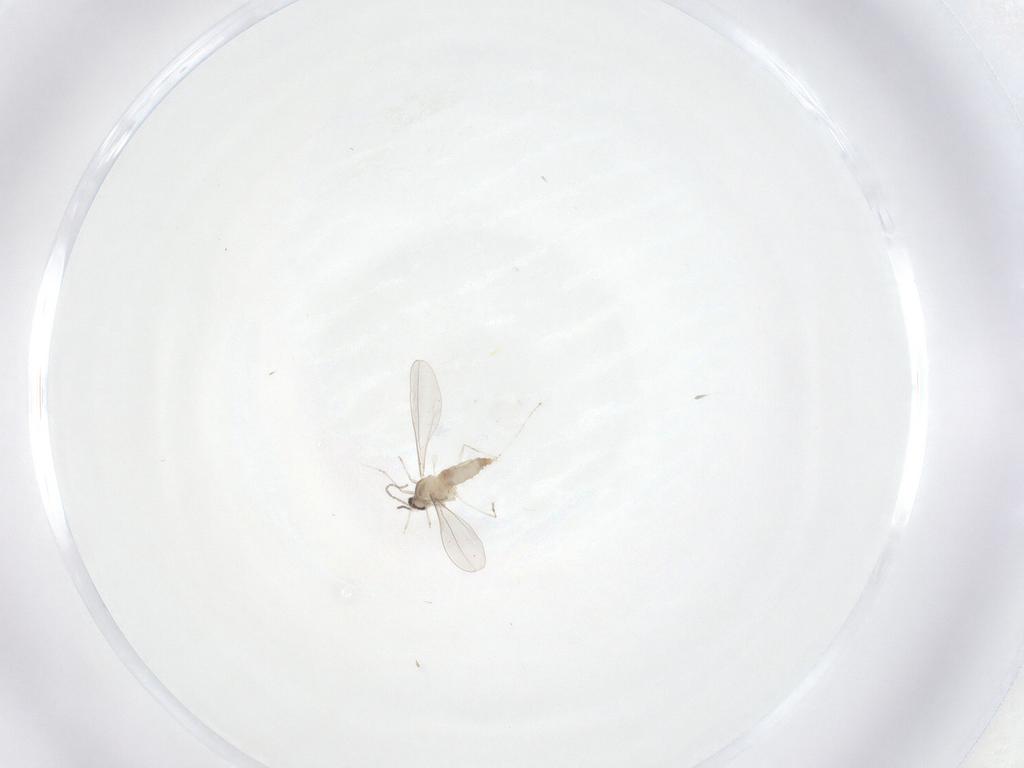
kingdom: Animalia
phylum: Arthropoda
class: Insecta
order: Diptera
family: Cecidomyiidae
